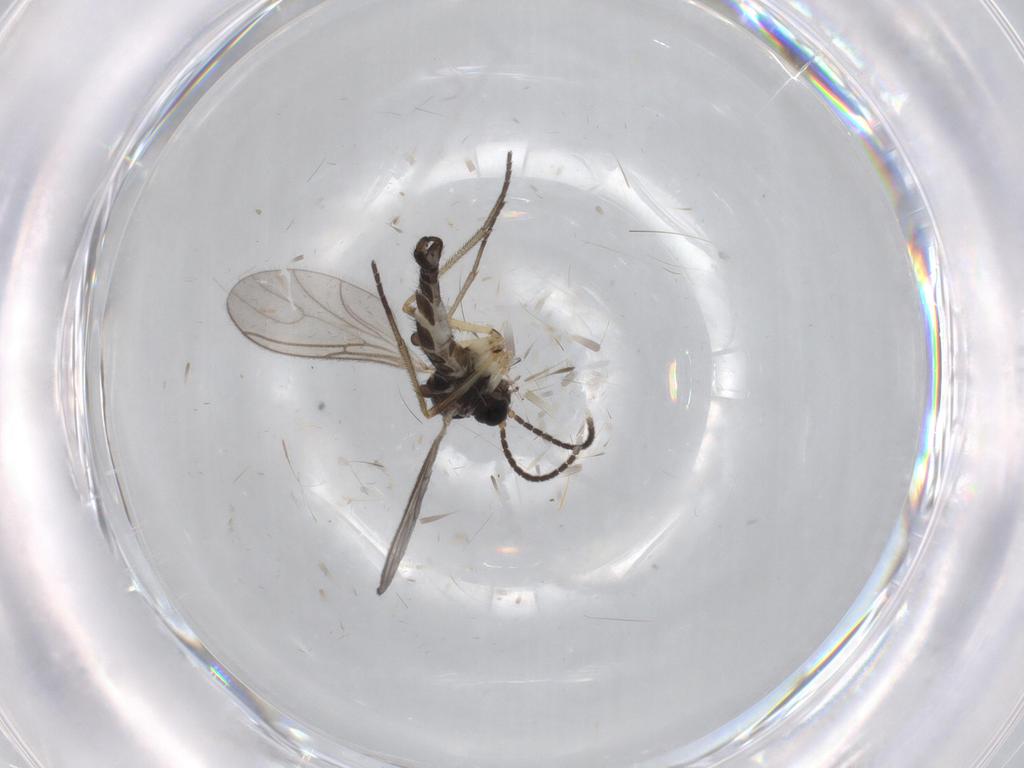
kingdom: Animalia
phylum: Arthropoda
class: Insecta
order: Diptera
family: Sciaridae
